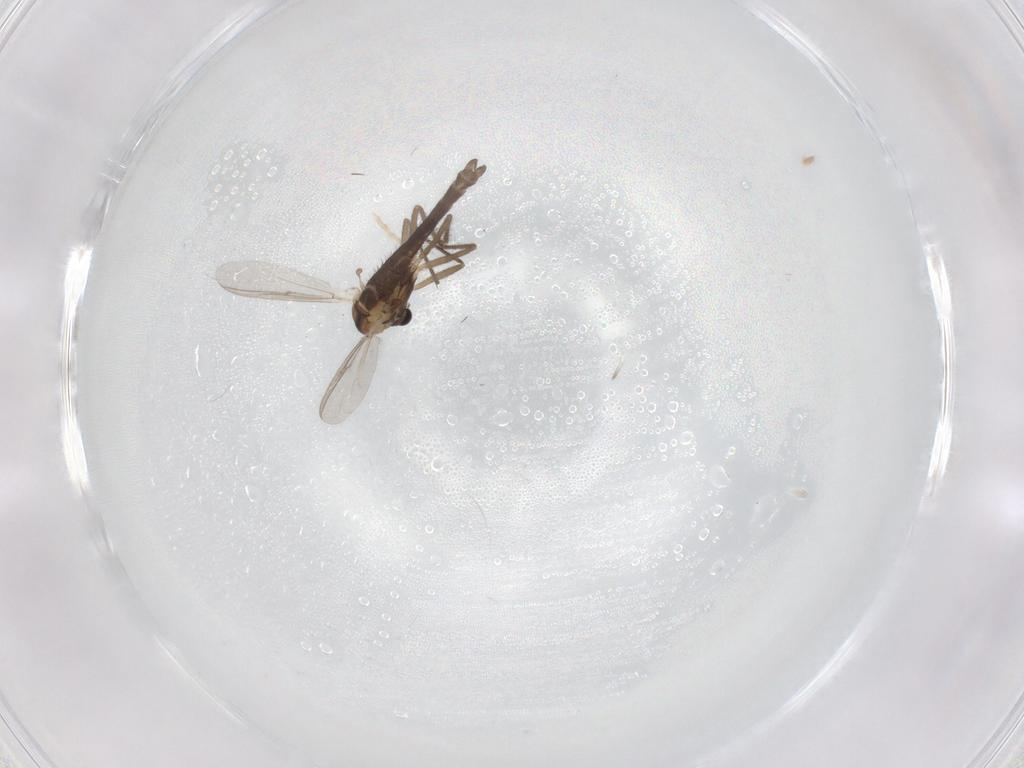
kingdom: Animalia
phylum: Arthropoda
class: Insecta
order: Diptera
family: Chironomidae
